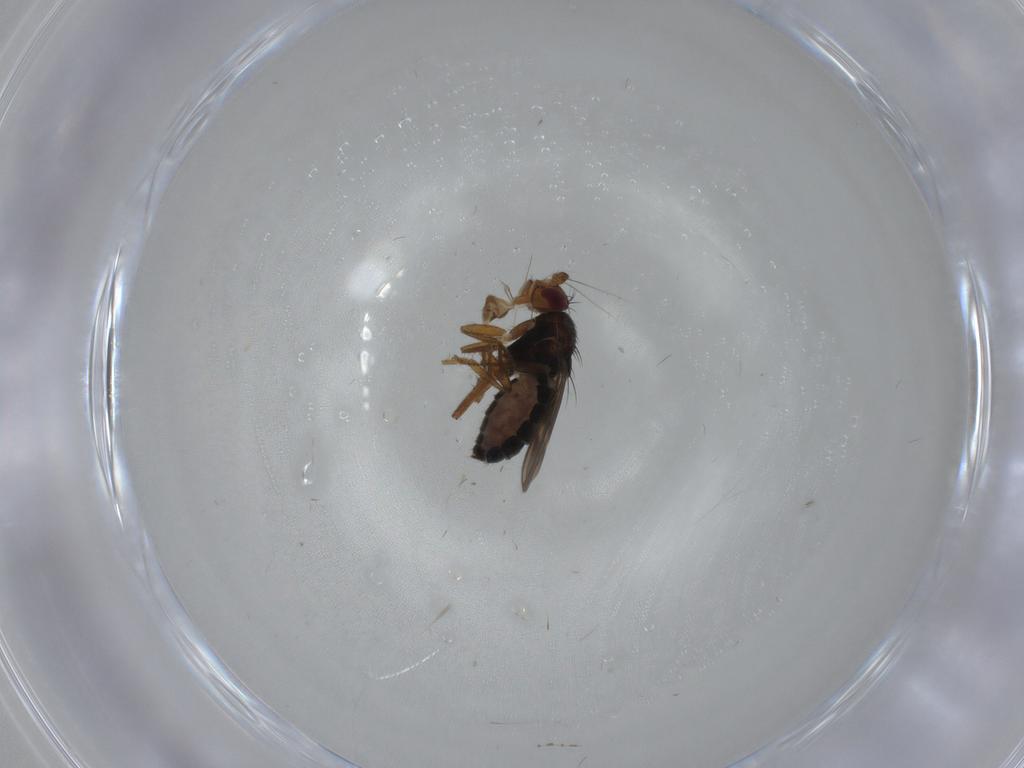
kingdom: Animalia
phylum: Arthropoda
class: Insecta
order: Diptera
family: Sphaeroceridae
